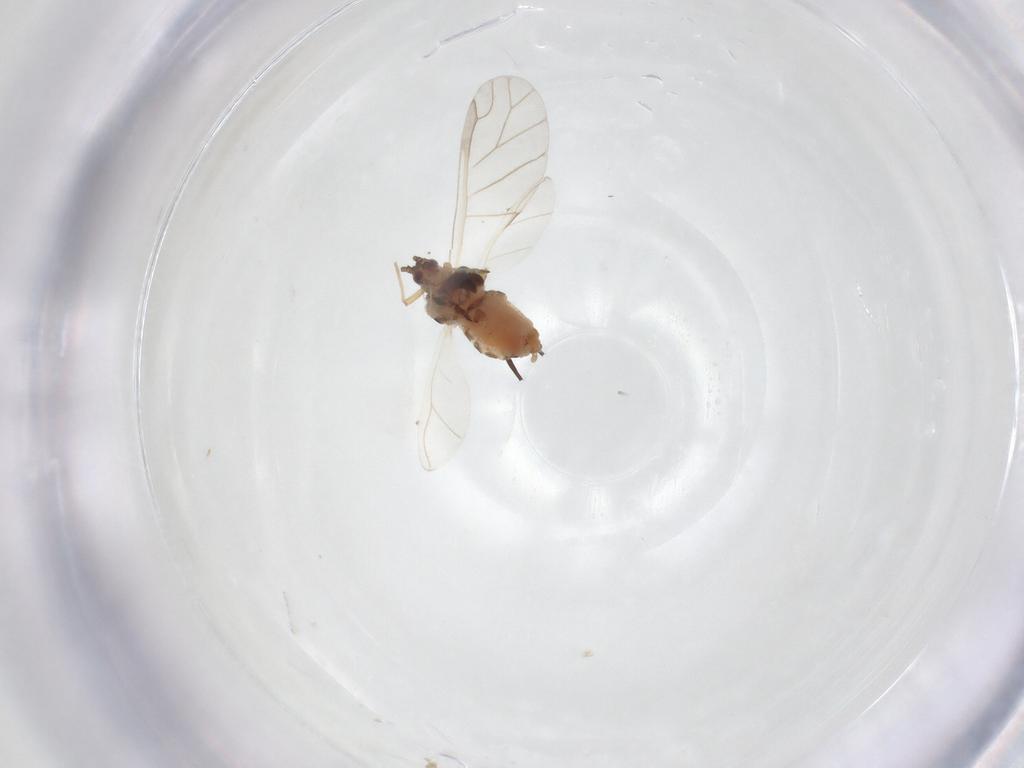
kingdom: Animalia
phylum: Arthropoda
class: Insecta
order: Hemiptera
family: Aphididae
